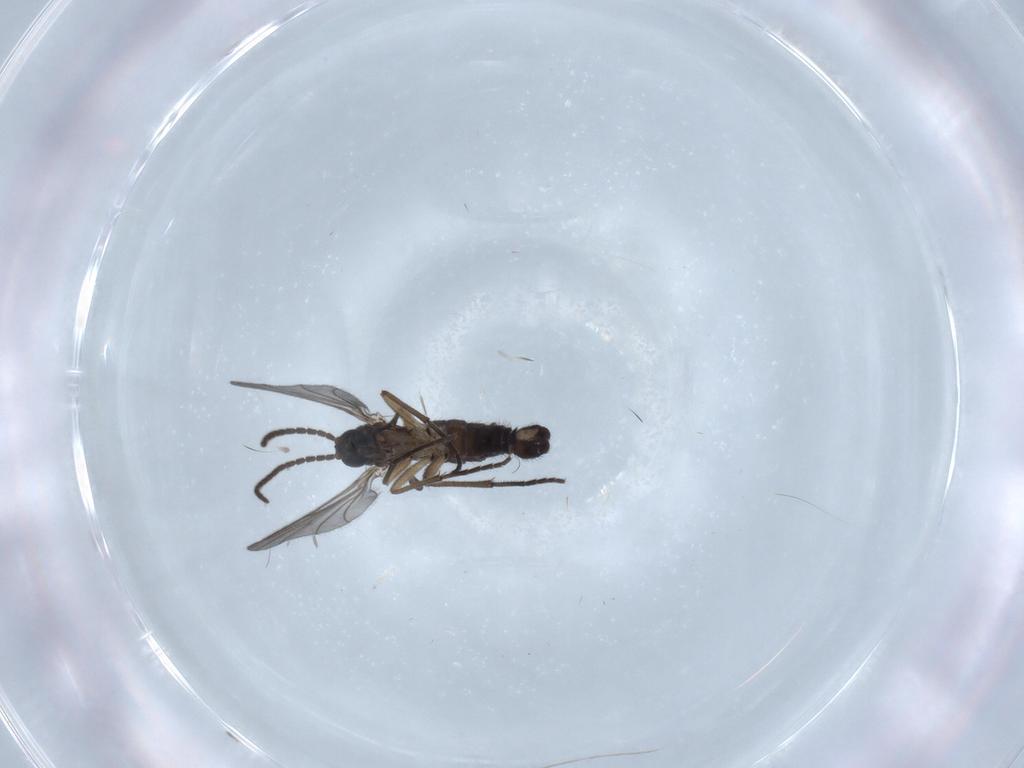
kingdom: Animalia
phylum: Arthropoda
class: Insecta
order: Diptera
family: Sciaridae
